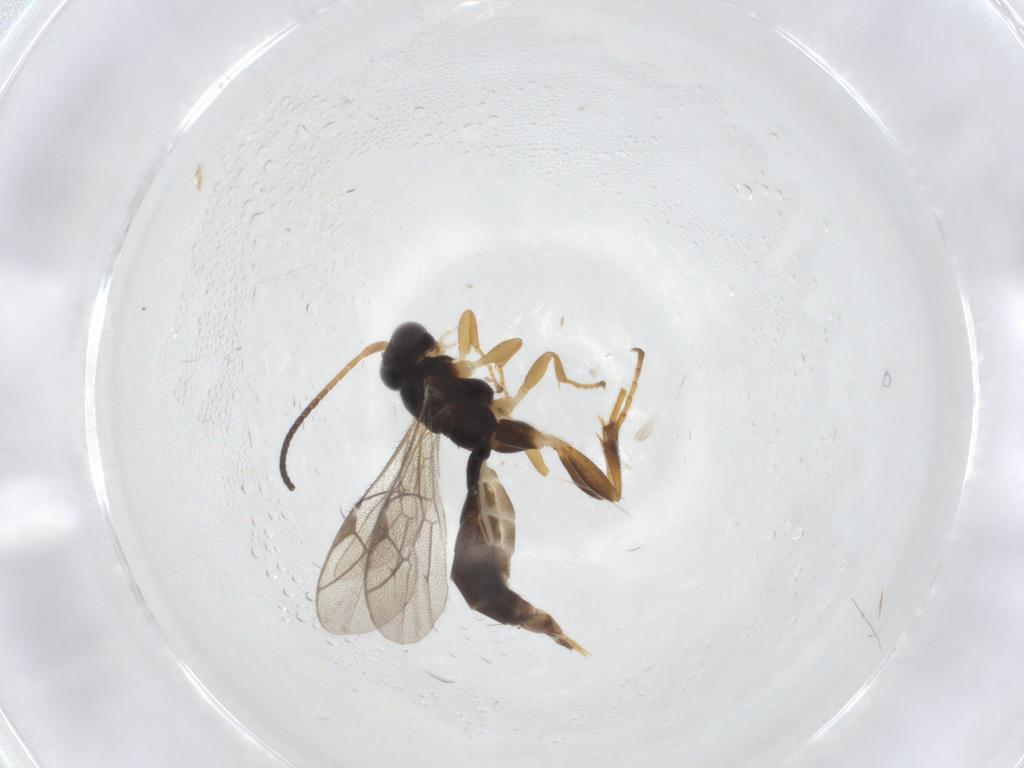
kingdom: Animalia
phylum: Arthropoda
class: Insecta
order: Hymenoptera
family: Ichneumonidae
